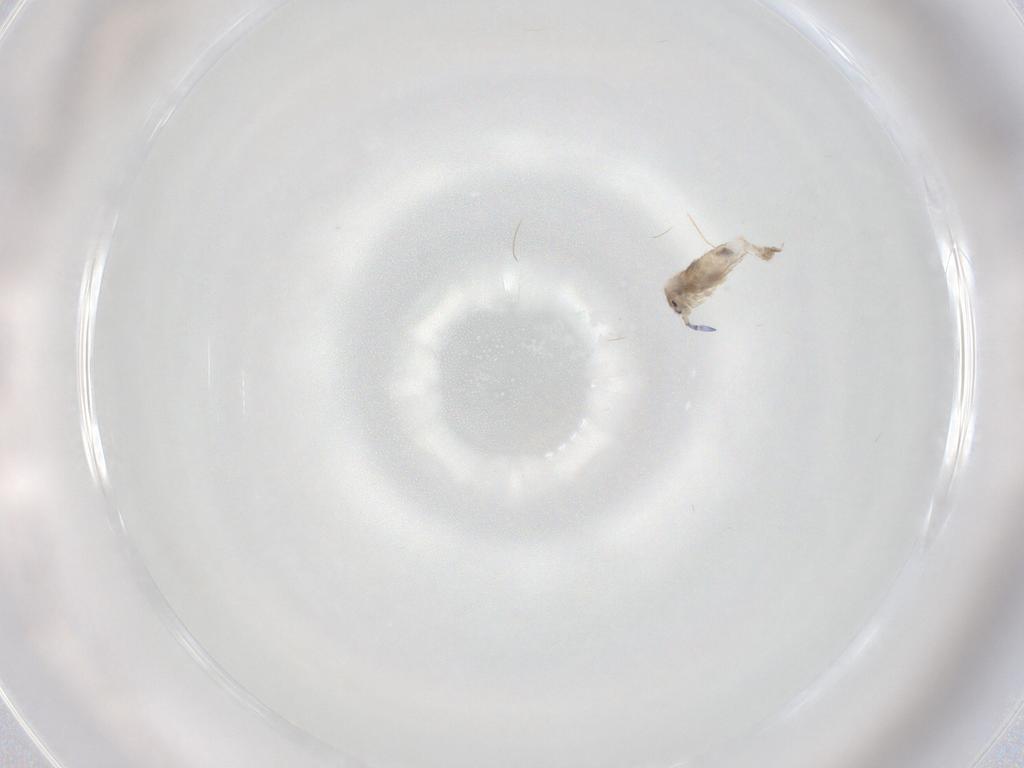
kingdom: Animalia
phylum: Arthropoda
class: Collembola
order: Entomobryomorpha
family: Entomobryidae
